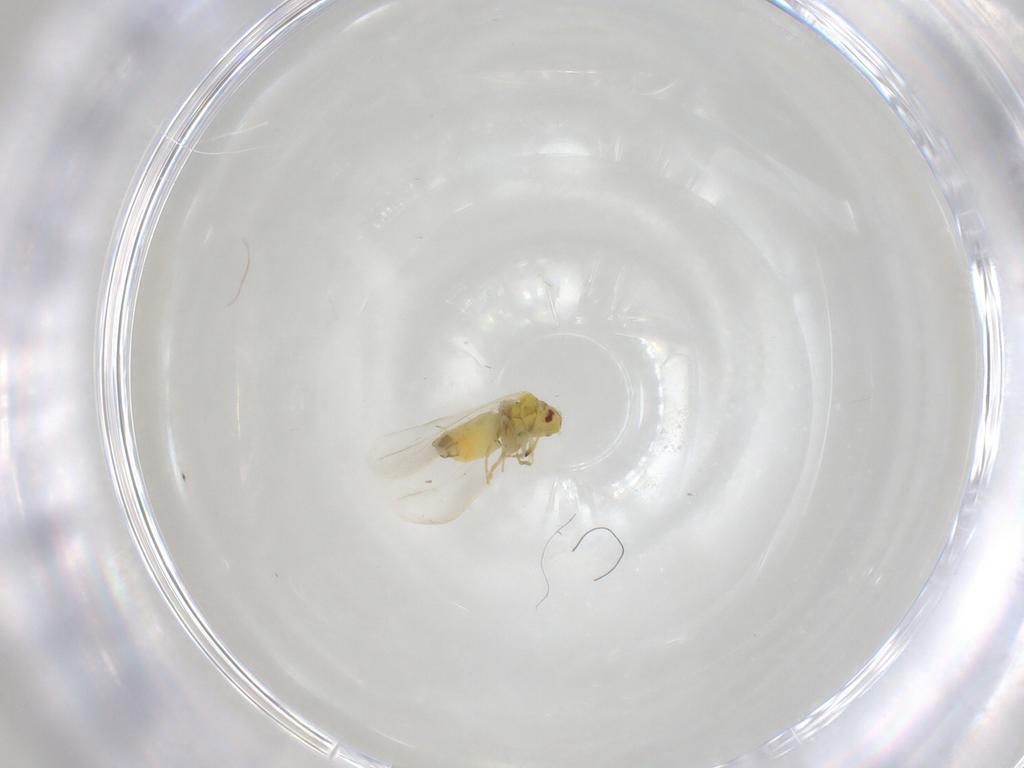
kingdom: Animalia
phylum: Arthropoda
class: Insecta
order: Hemiptera
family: Aleyrodidae
